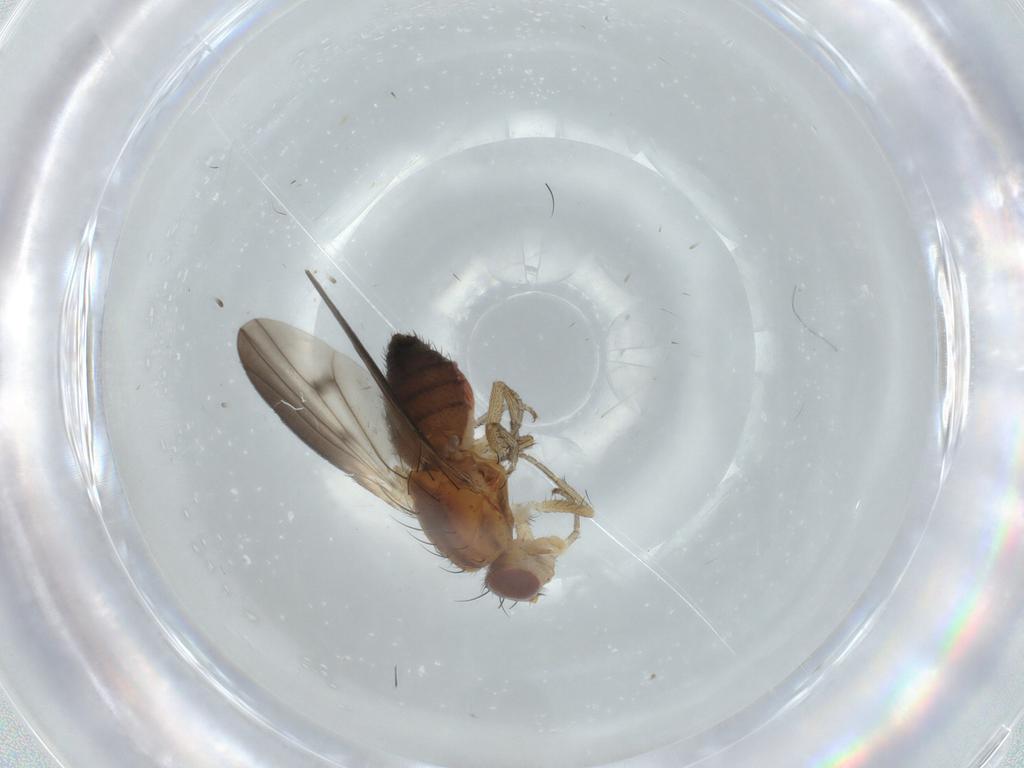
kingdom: Animalia
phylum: Arthropoda
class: Insecta
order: Diptera
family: Heleomyzidae
